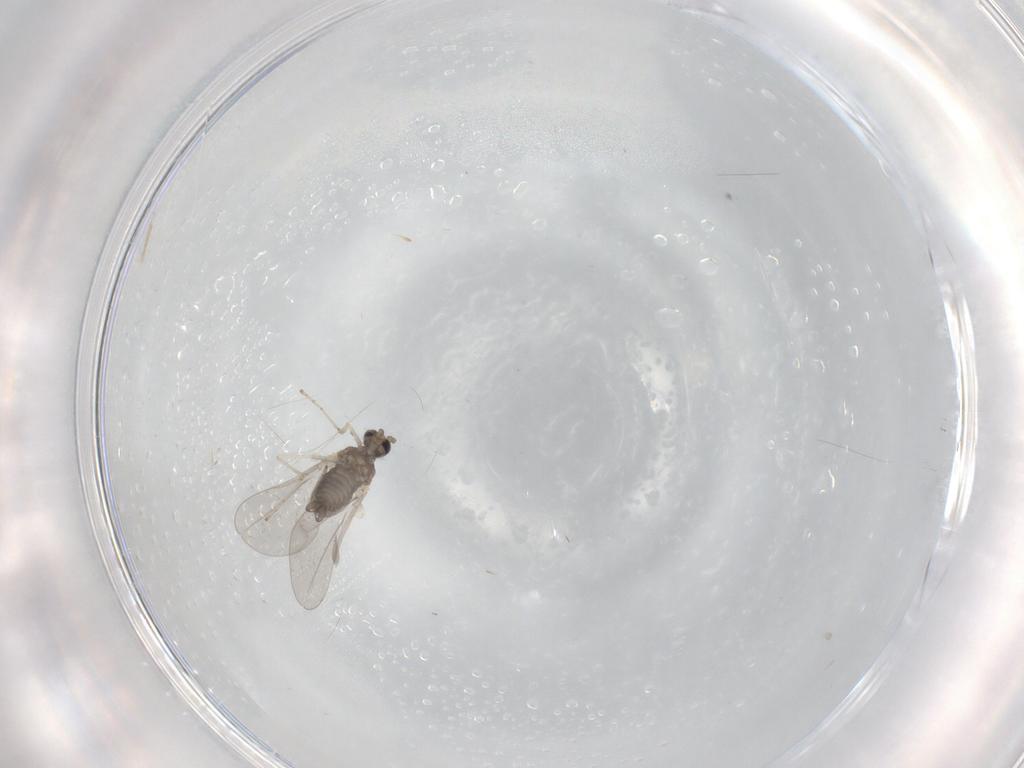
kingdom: Animalia
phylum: Arthropoda
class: Insecta
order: Diptera
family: Cecidomyiidae
